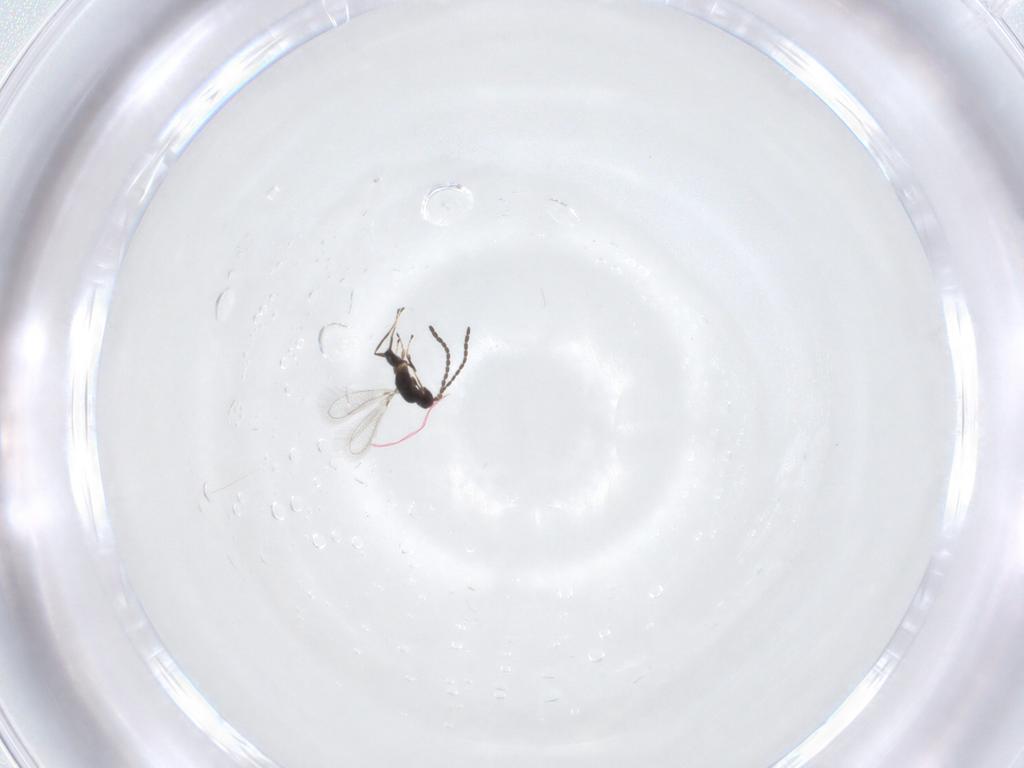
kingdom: Animalia
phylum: Arthropoda
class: Insecta
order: Hymenoptera
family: Mymaridae
